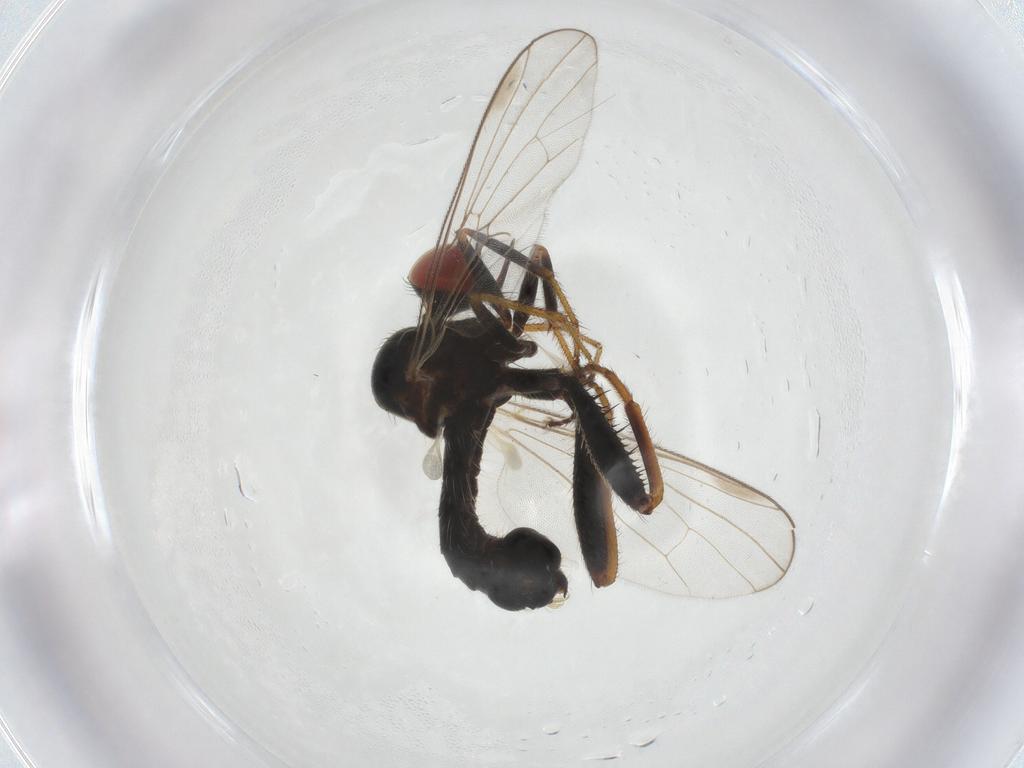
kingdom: Animalia
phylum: Arthropoda
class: Insecta
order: Diptera
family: Hybotidae
